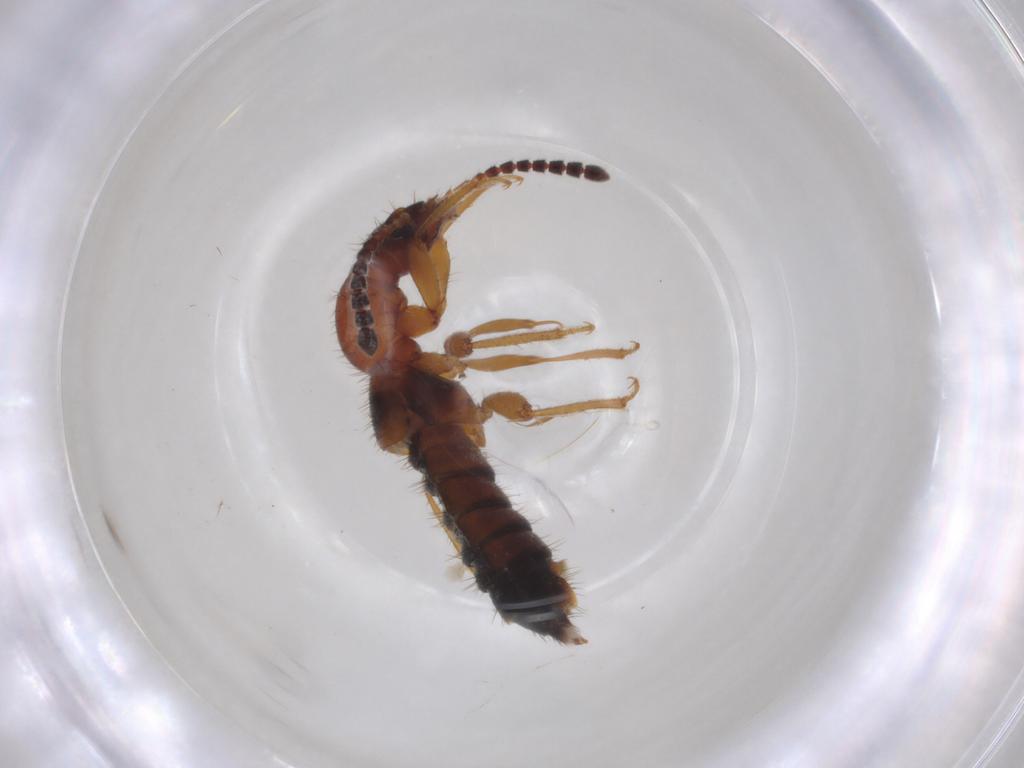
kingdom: Animalia
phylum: Arthropoda
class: Insecta
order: Coleoptera
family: Staphylinidae
